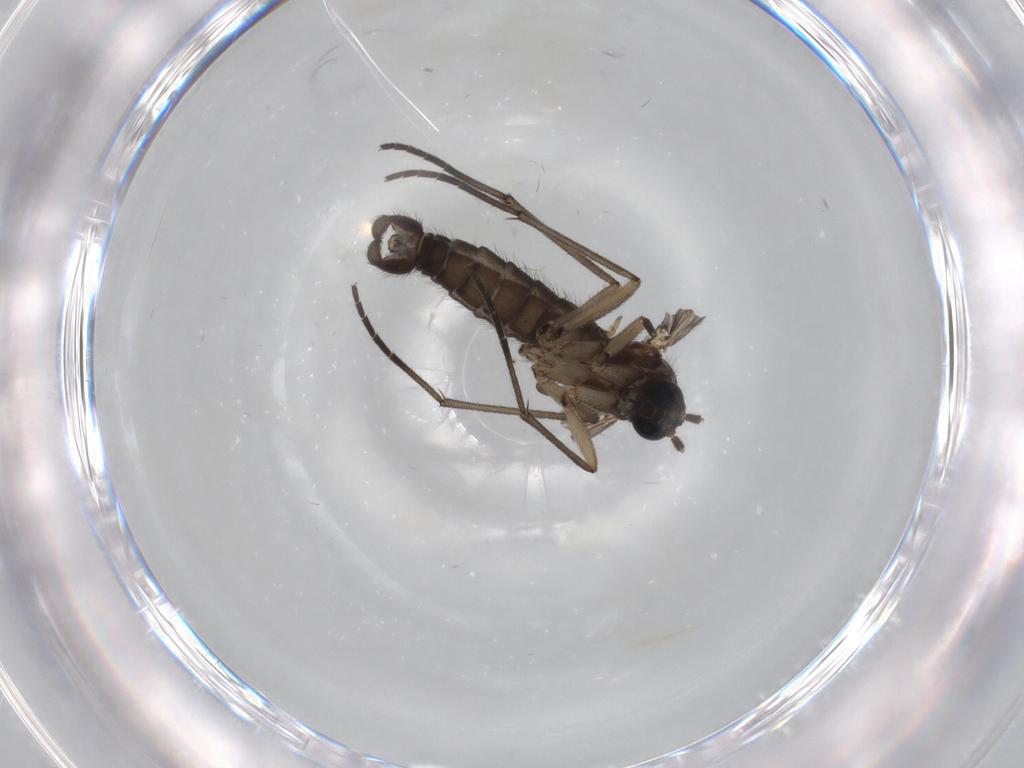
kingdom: Animalia
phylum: Arthropoda
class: Insecta
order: Diptera
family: Sciaridae
